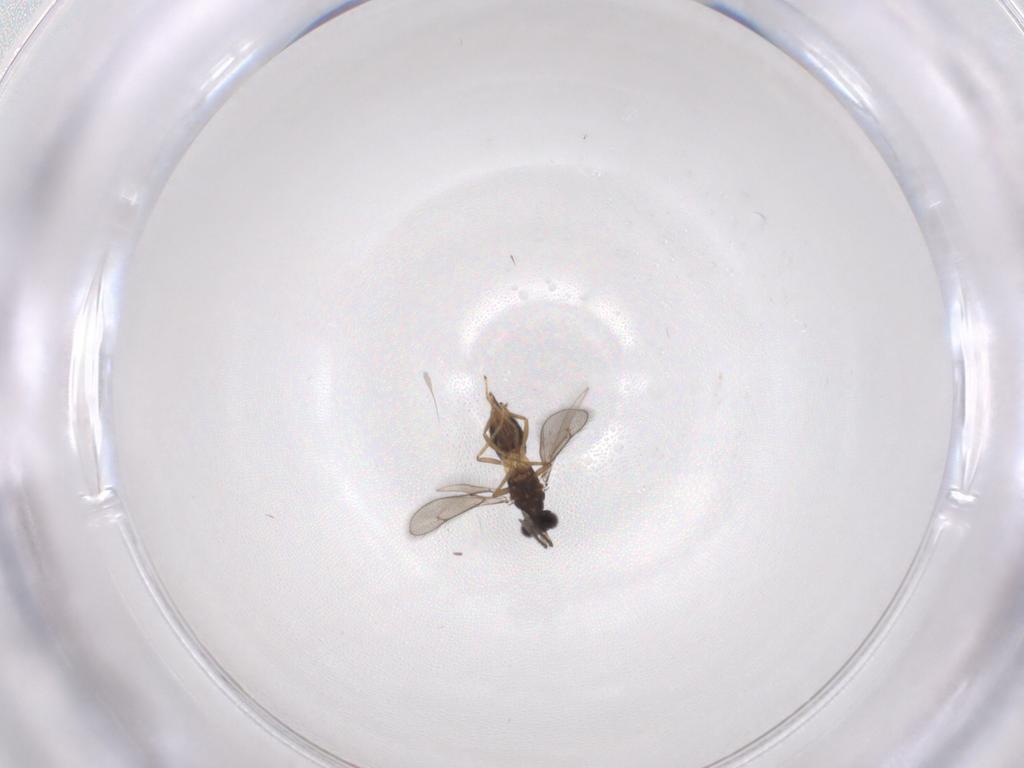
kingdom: Animalia
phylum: Arthropoda
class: Insecta
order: Hymenoptera
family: Eulophidae
